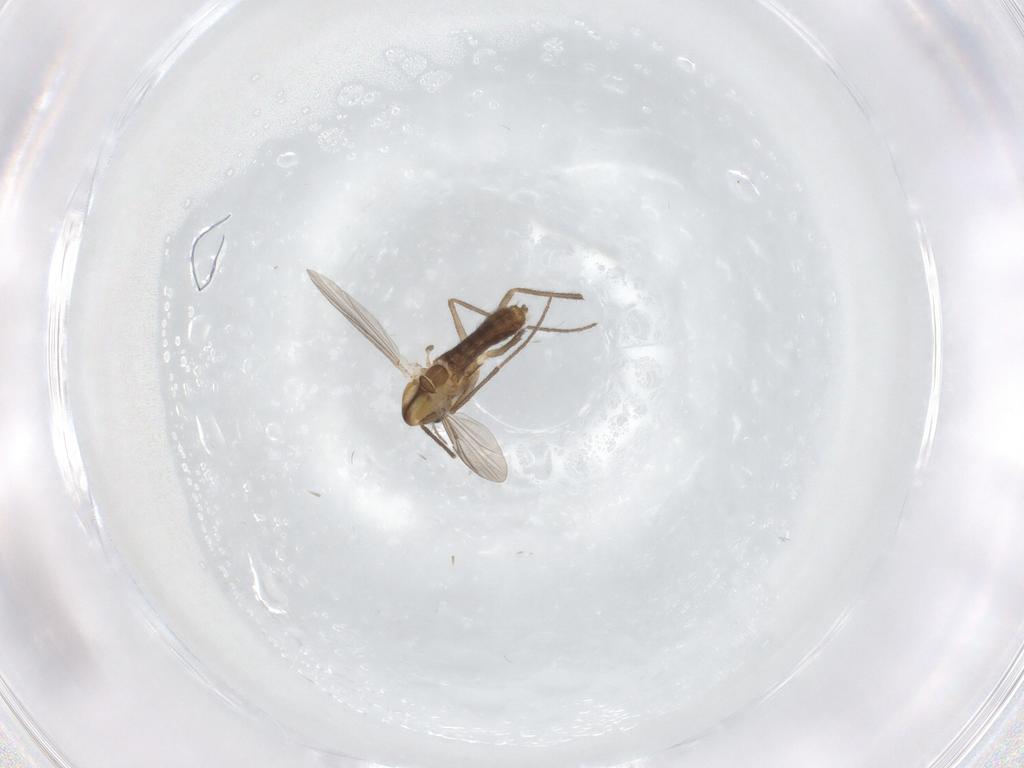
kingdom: Animalia
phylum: Arthropoda
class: Insecta
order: Diptera
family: Chironomidae
